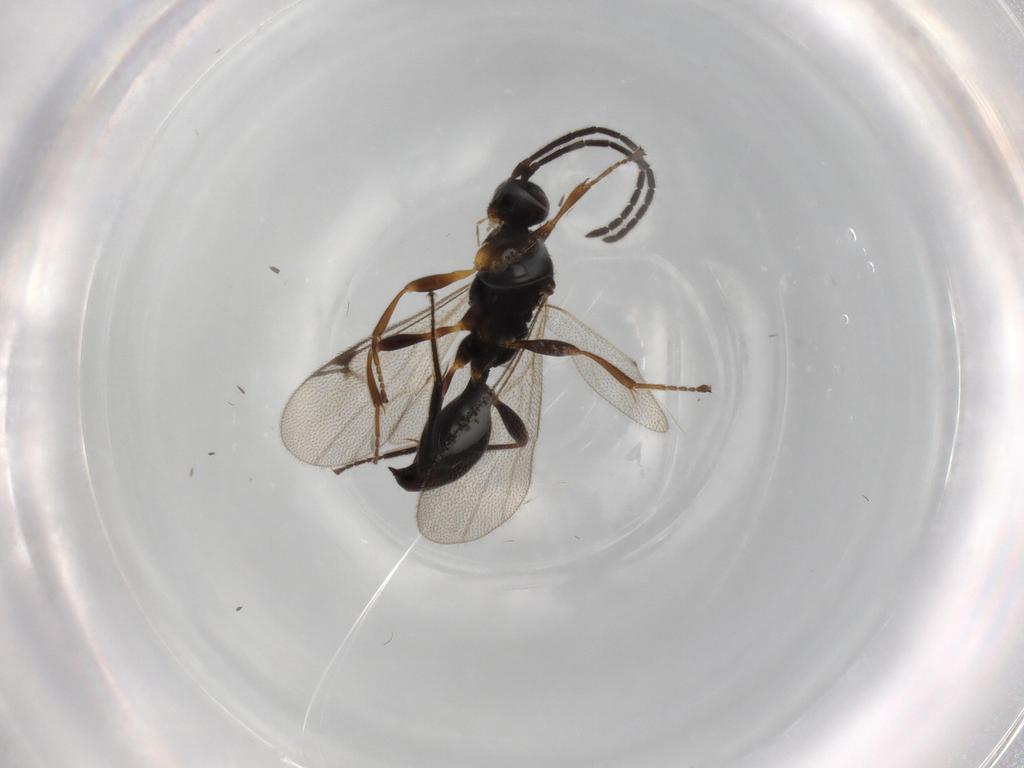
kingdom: Animalia
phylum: Arthropoda
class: Insecta
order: Hymenoptera
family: Proctotrupidae
